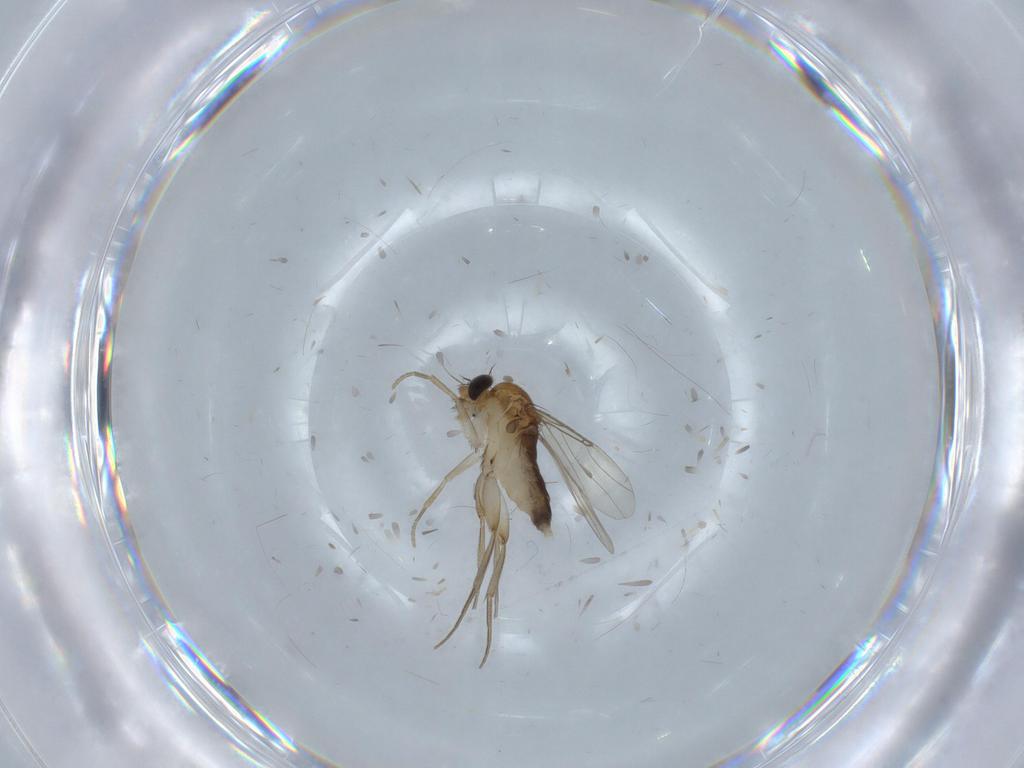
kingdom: Animalia
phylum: Arthropoda
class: Insecta
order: Diptera
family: Phoridae
